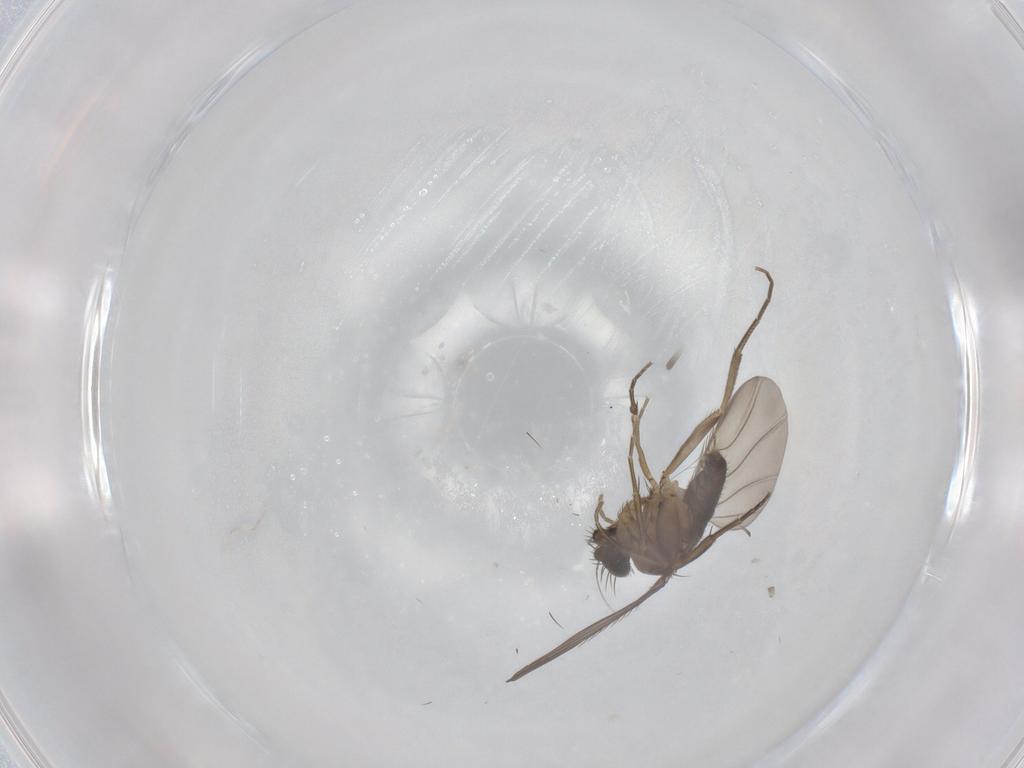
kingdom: Animalia
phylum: Arthropoda
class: Insecta
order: Diptera
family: Phoridae
